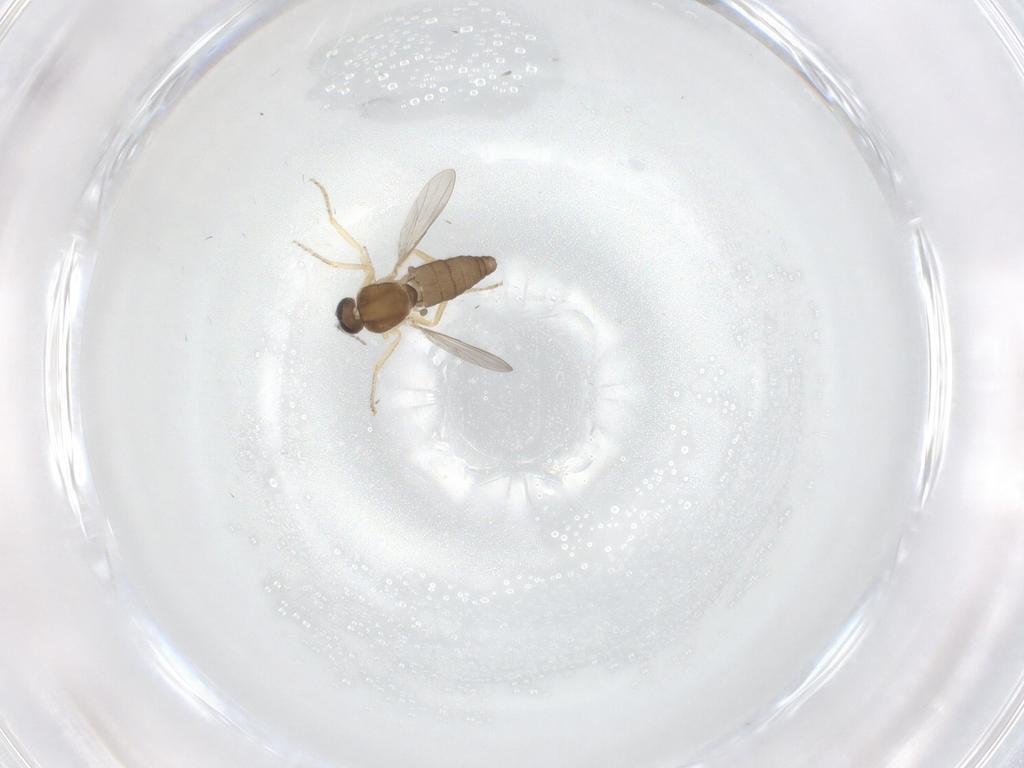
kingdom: Animalia
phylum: Arthropoda
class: Insecta
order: Diptera
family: Ceratopogonidae
